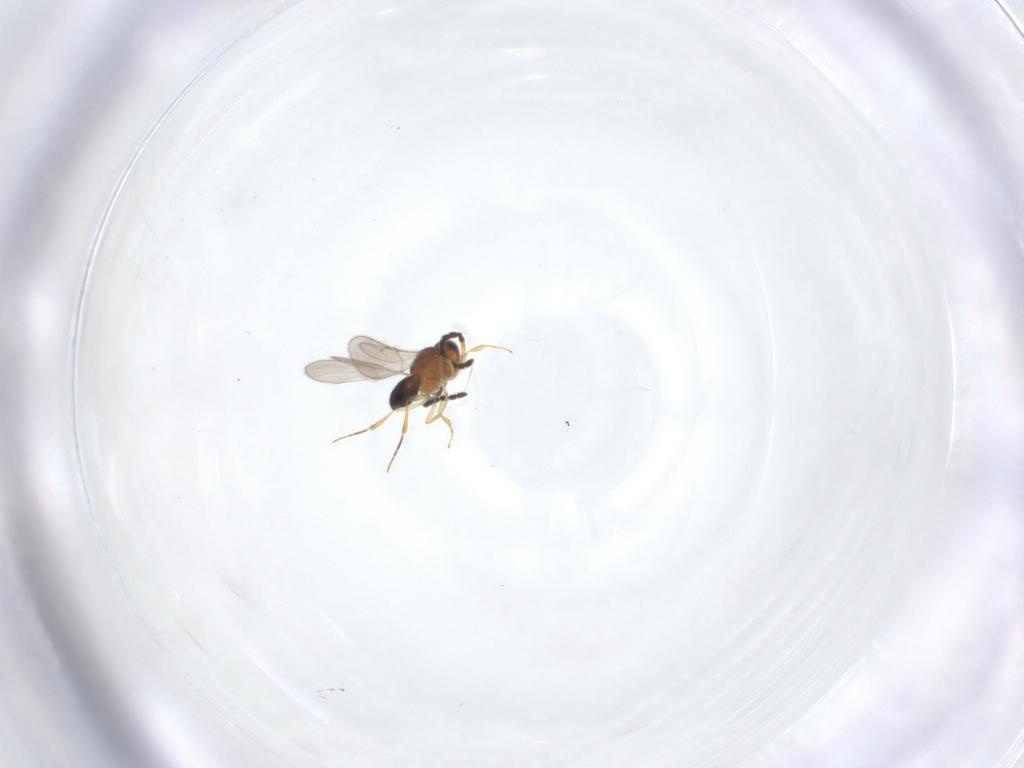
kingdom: Animalia
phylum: Arthropoda
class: Insecta
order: Hymenoptera
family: Scelionidae
